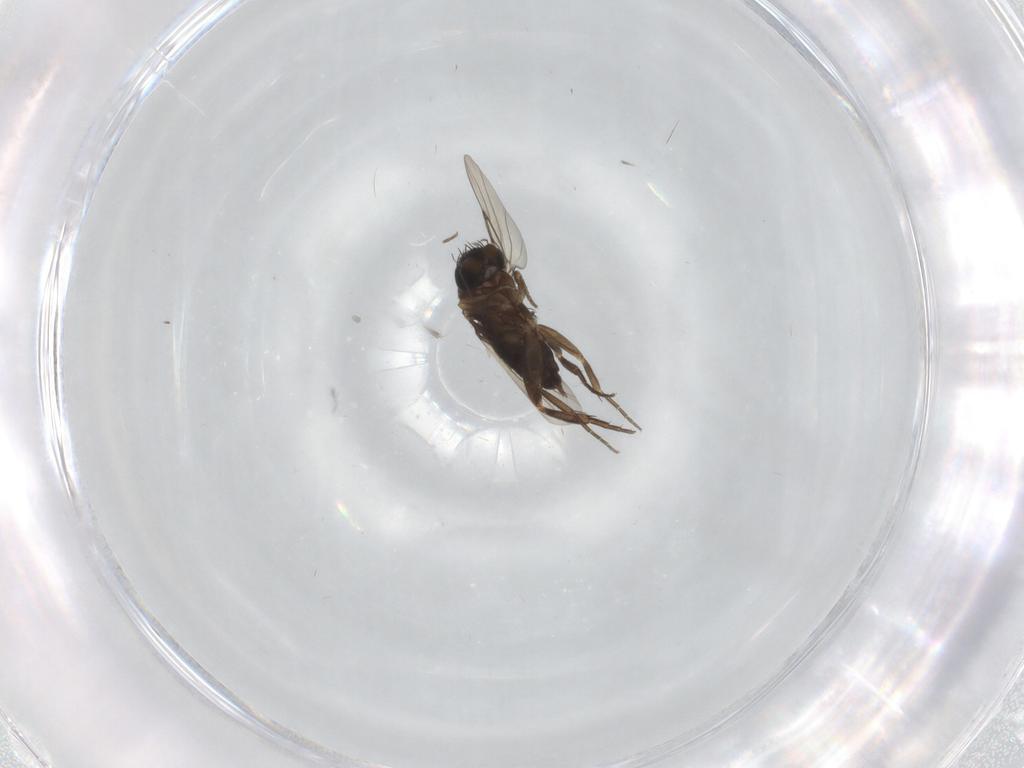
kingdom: Animalia
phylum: Arthropoda
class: Insecta
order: Diptera
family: Phoridae
